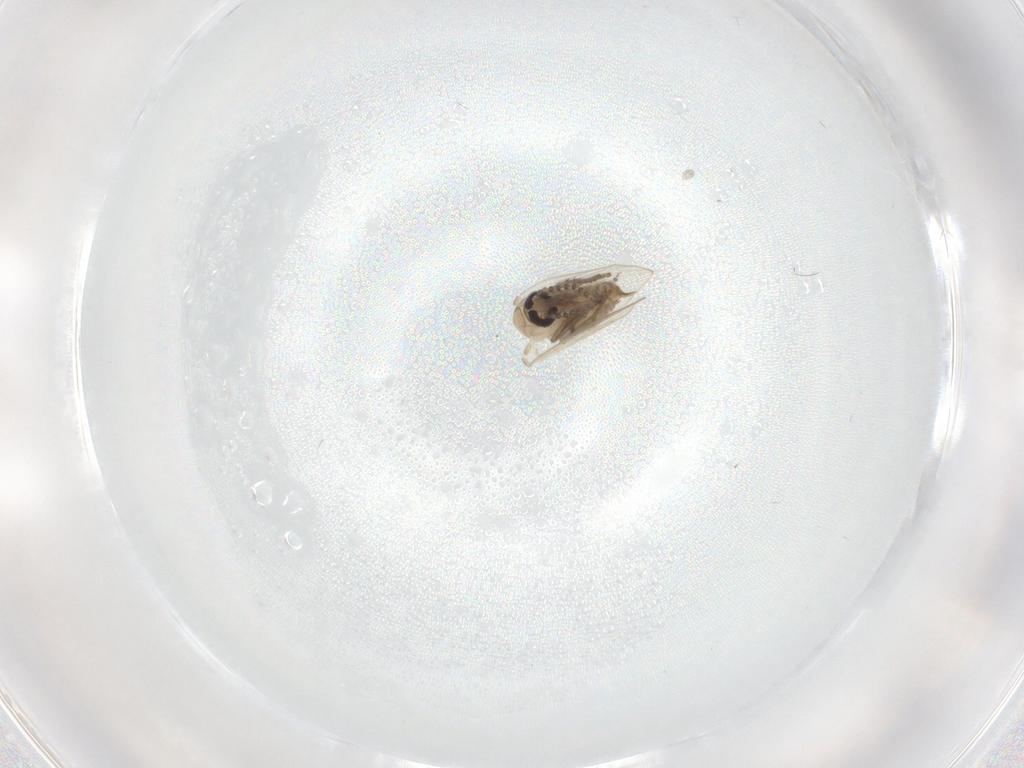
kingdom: Animalia
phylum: Arthropoda
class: Insecta
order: Diptera
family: Psychodidae
